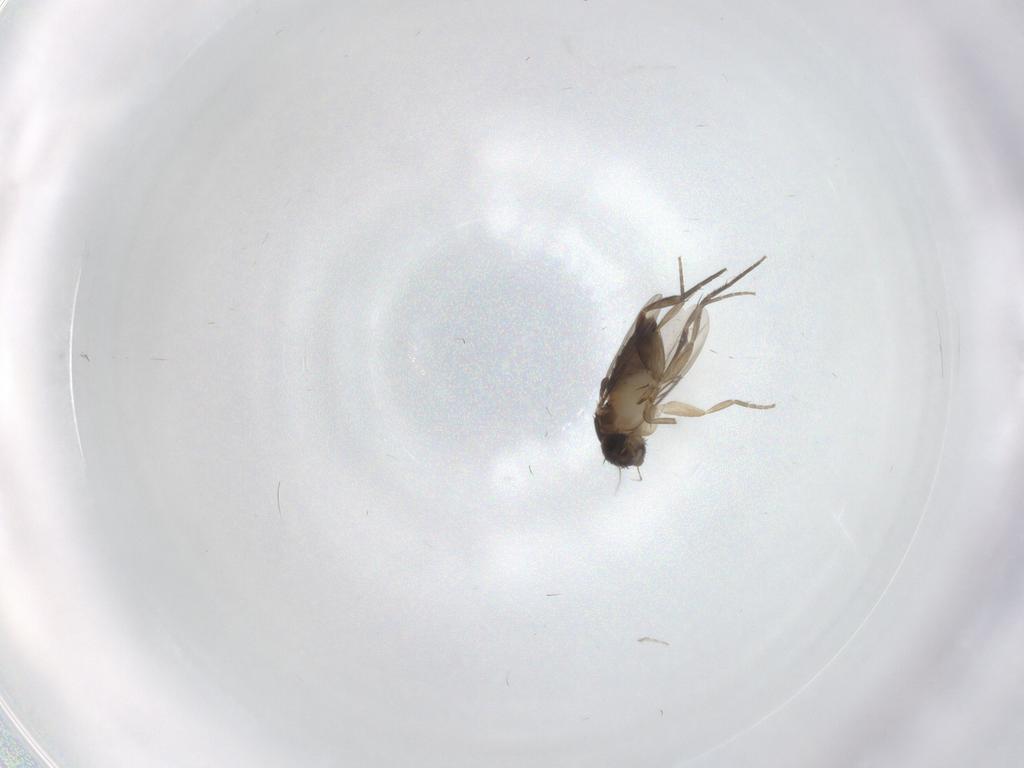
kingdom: Animalia
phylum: Arthropoda
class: Insecta
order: Diptera
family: Phoridae
